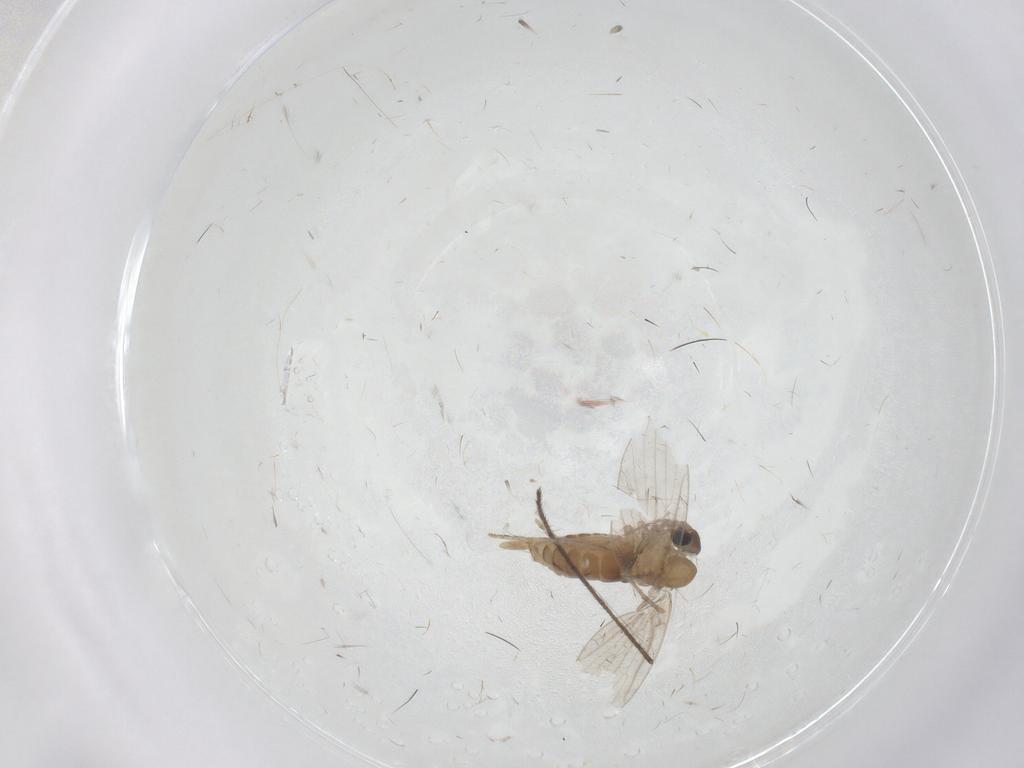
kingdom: Animalia
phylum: Arthropoda
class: Insecta
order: Diptera
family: Psychodidae
